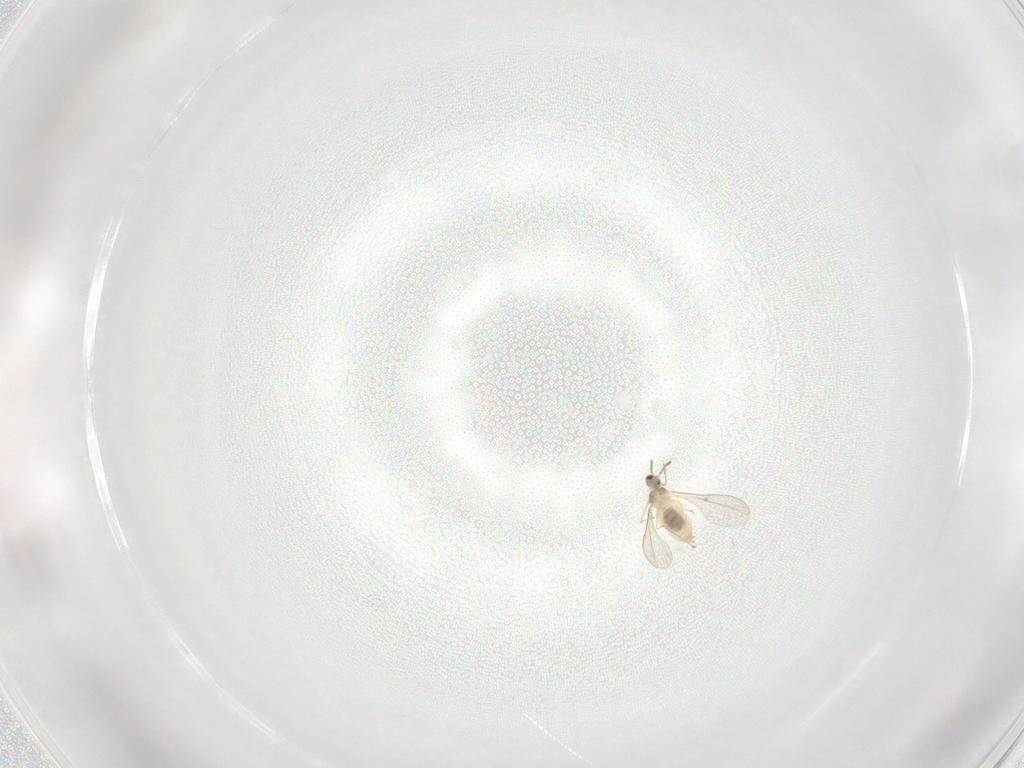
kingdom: Animalia
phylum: Arthropoda
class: Insecta
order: Diptera
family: Cecidomyiidae
